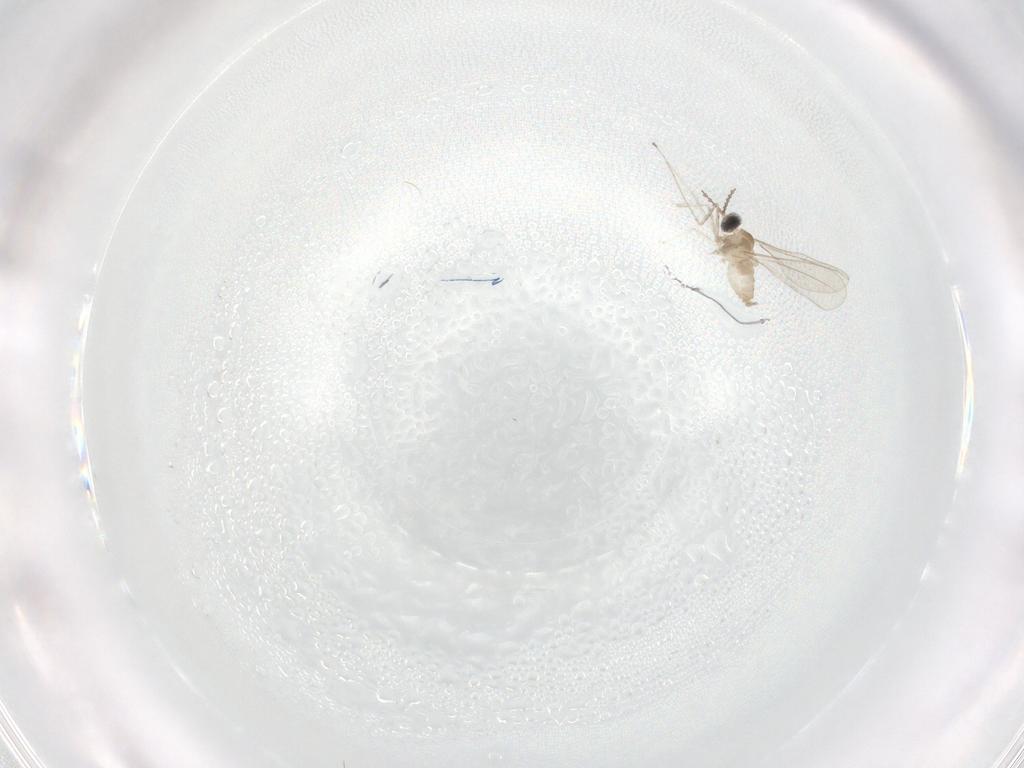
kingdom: Animalia
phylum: Arthropoda
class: Insecta
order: Diptera
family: Cecidomyiidae
